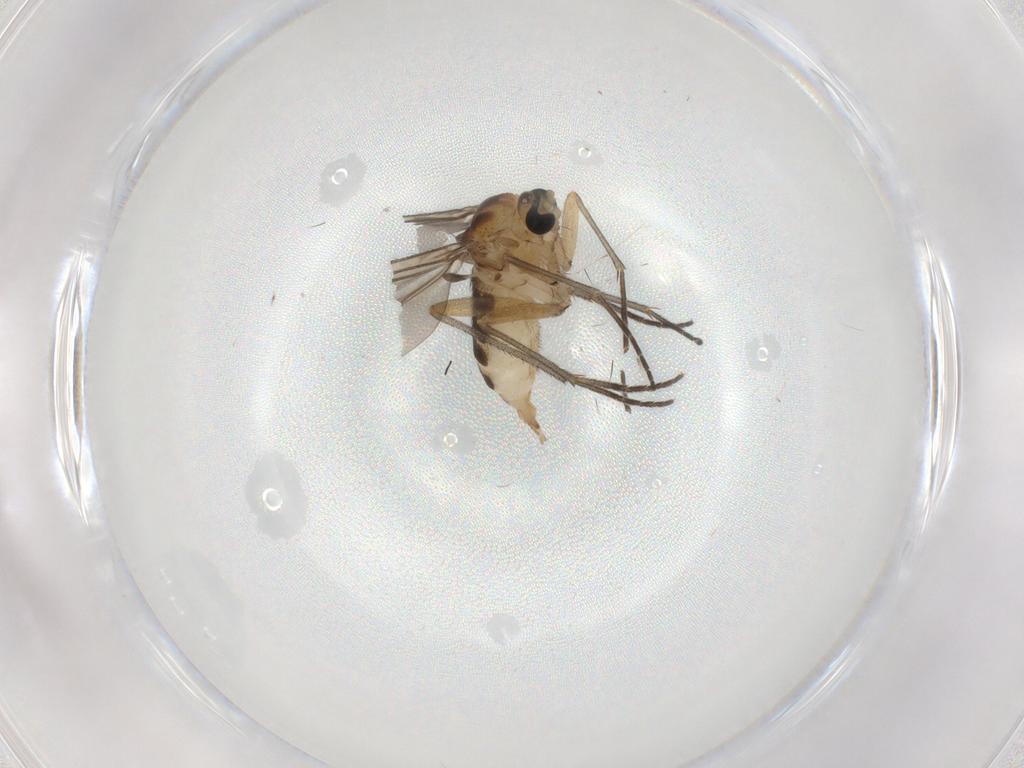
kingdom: Animalia
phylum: Arthropoda
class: Insecta
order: Diptera
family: Sciaridae
